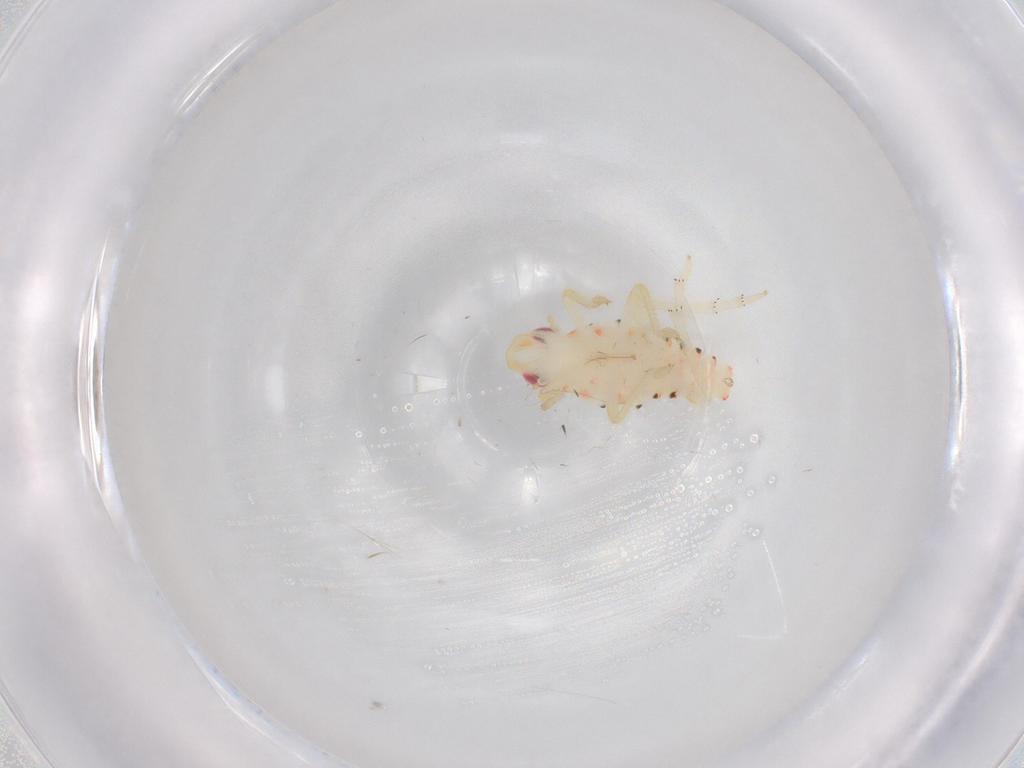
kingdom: Animalia
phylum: Arthropoda
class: Insecta
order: Hemiptera
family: Tropiduchidae
